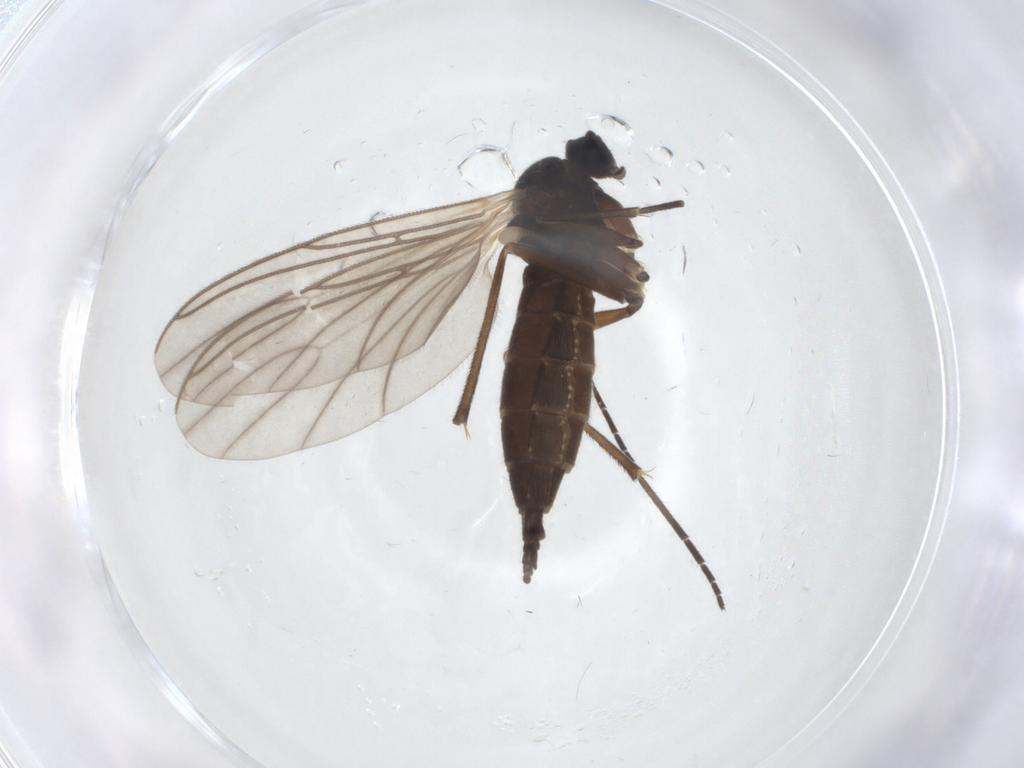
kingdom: Animalia
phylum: Arthropoda
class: Insecta
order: Diptera
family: Sciaridae
